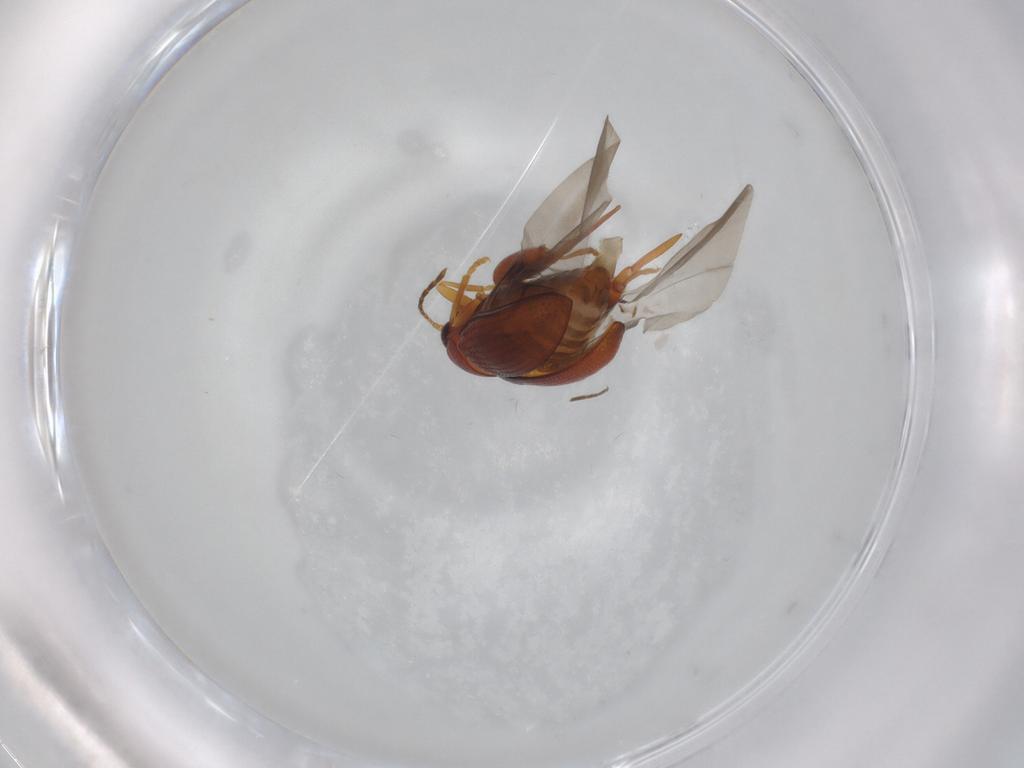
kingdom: Animalia
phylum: Arthropoda
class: Insecta
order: Coleoptera
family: Chrysomelidae
